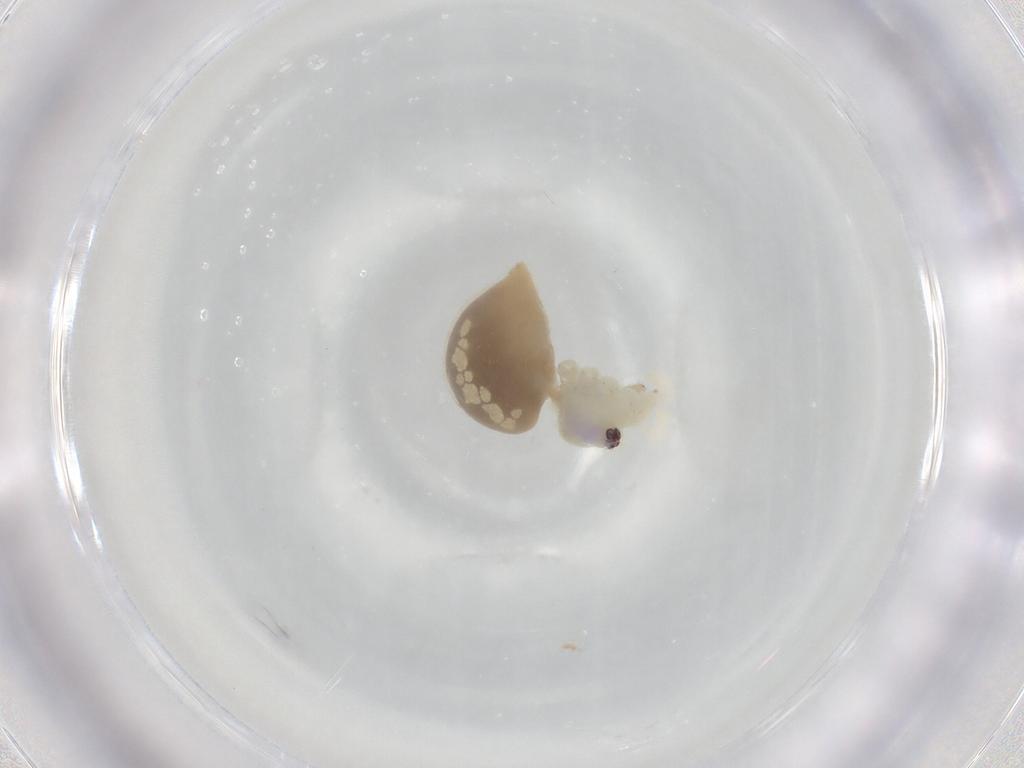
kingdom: Animalia
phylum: Arthropoda
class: Arachnida
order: Araneae
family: Pholcidae
